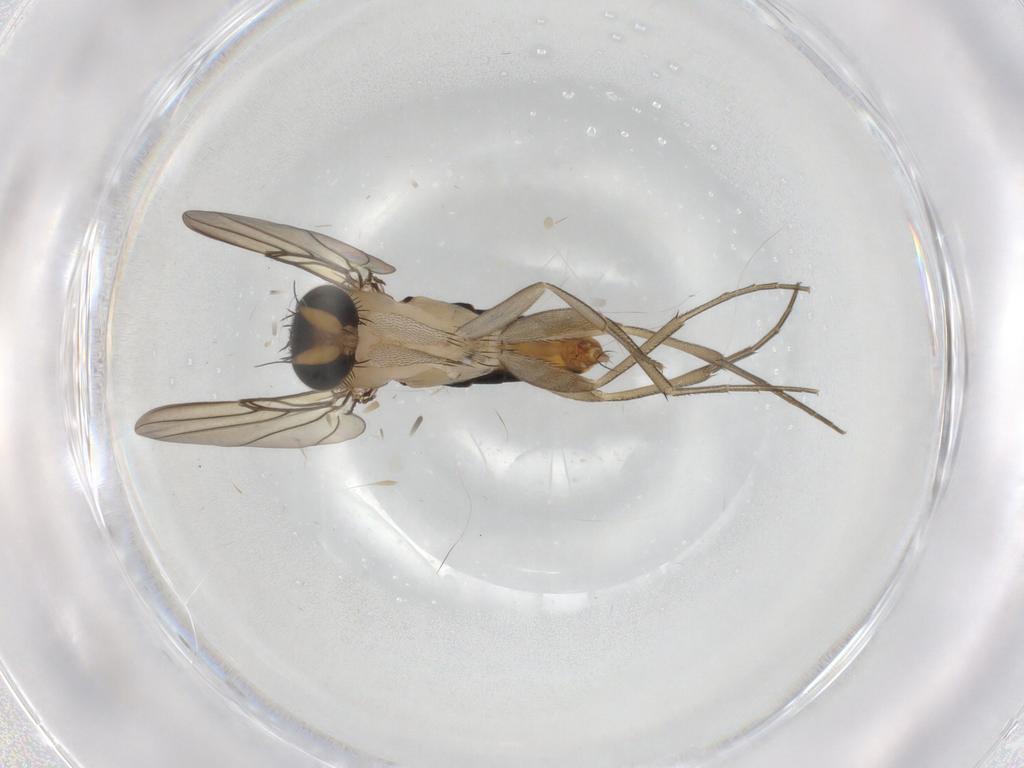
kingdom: Animalia
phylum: Arthropoda
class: Insecta
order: Diptera
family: Phoridae
